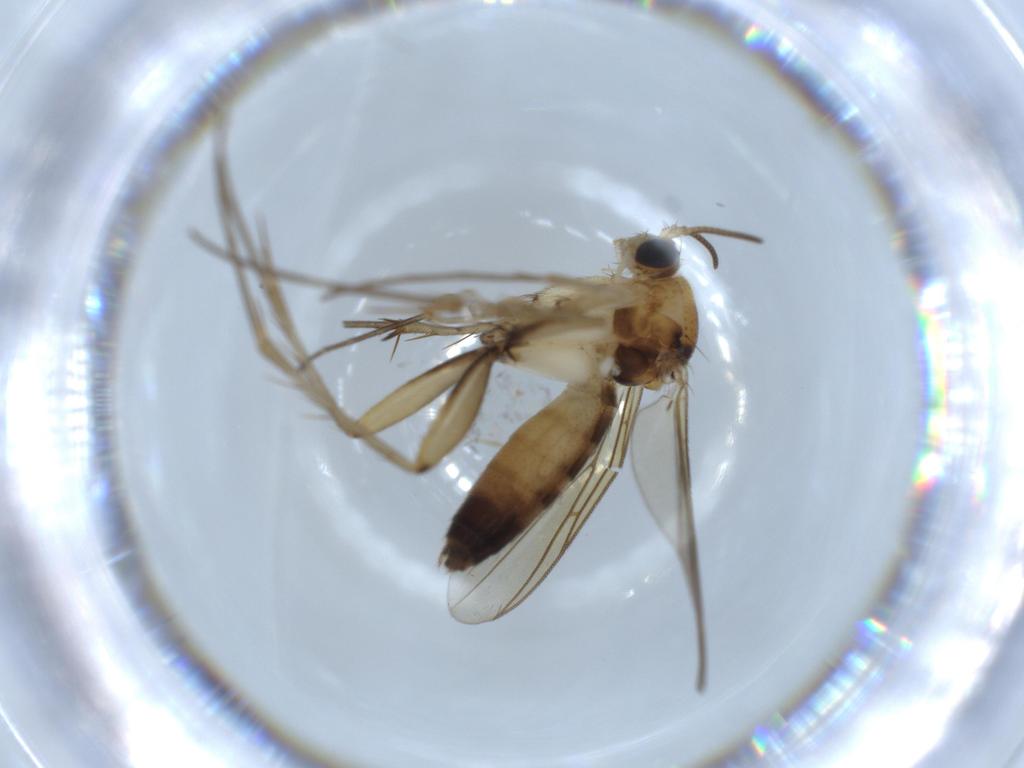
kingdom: Animalia
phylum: Arthropoda
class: Insecta
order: Diptera
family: Mycetophilidae
